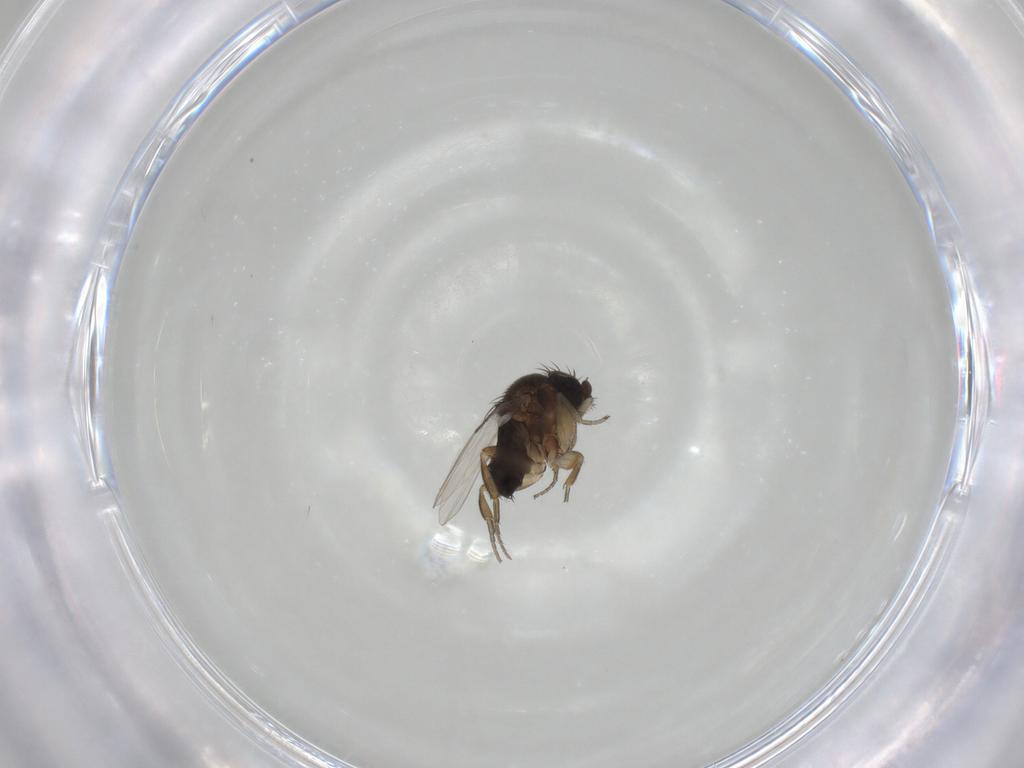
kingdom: Animalia
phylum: Arthropoda
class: Insecta
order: Diptera
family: Phoridae
